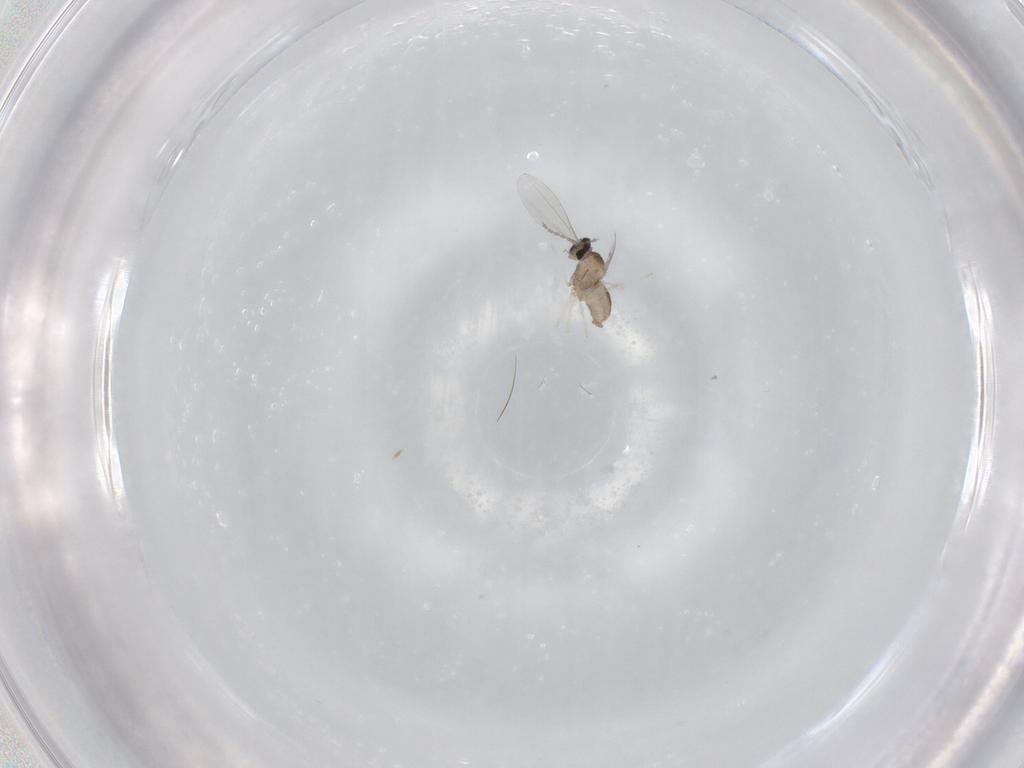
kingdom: Animalia
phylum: Arthropoda
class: Insecta
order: Diptera
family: Cecidomyiidae
